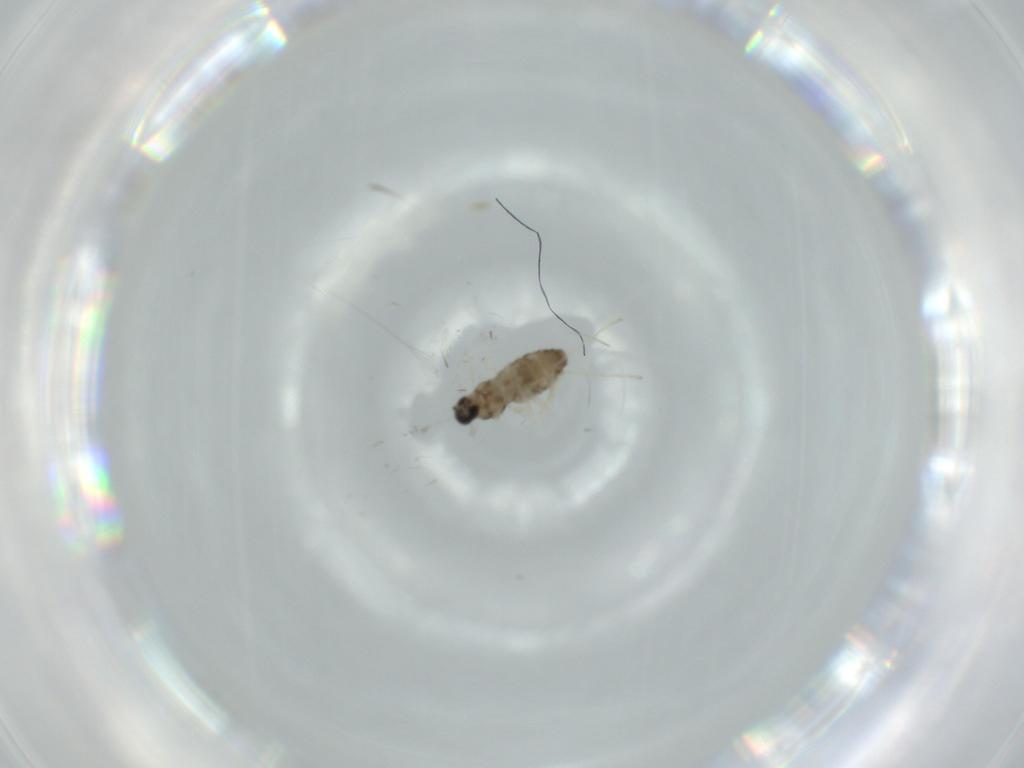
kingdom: Animalia
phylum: Arthropoda
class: Insecta
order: Diptera
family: Cecidomyiidae
